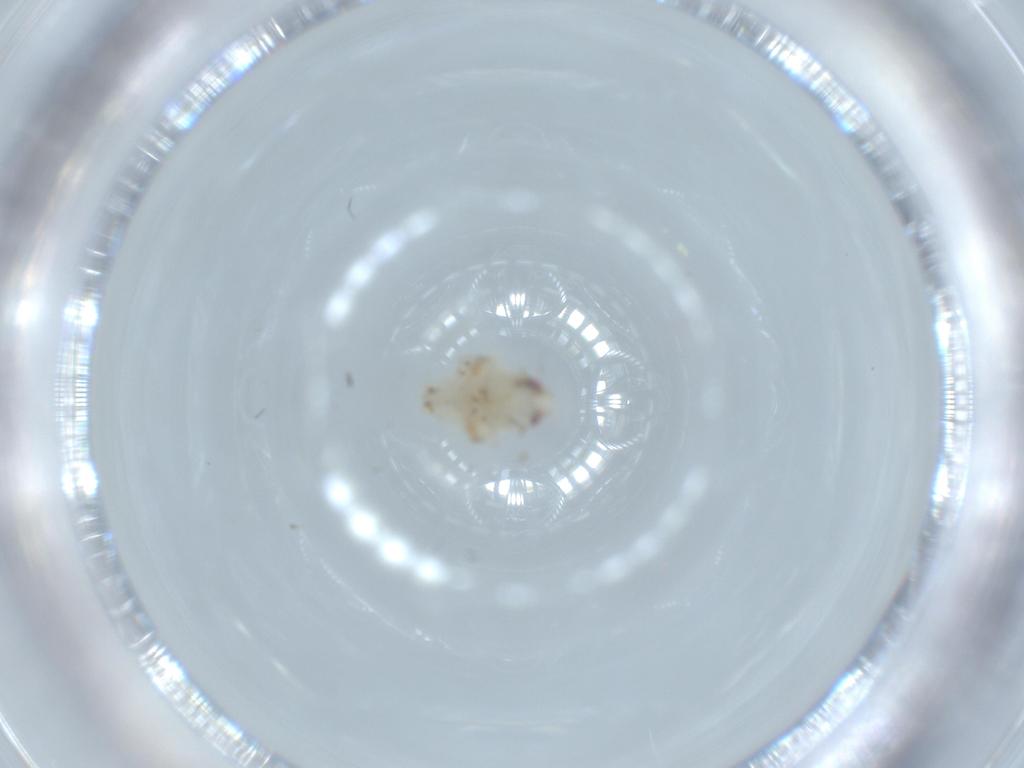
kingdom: Animalia
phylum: Arthropoda
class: Insecta
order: Hemiptera
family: Nogodinidae
